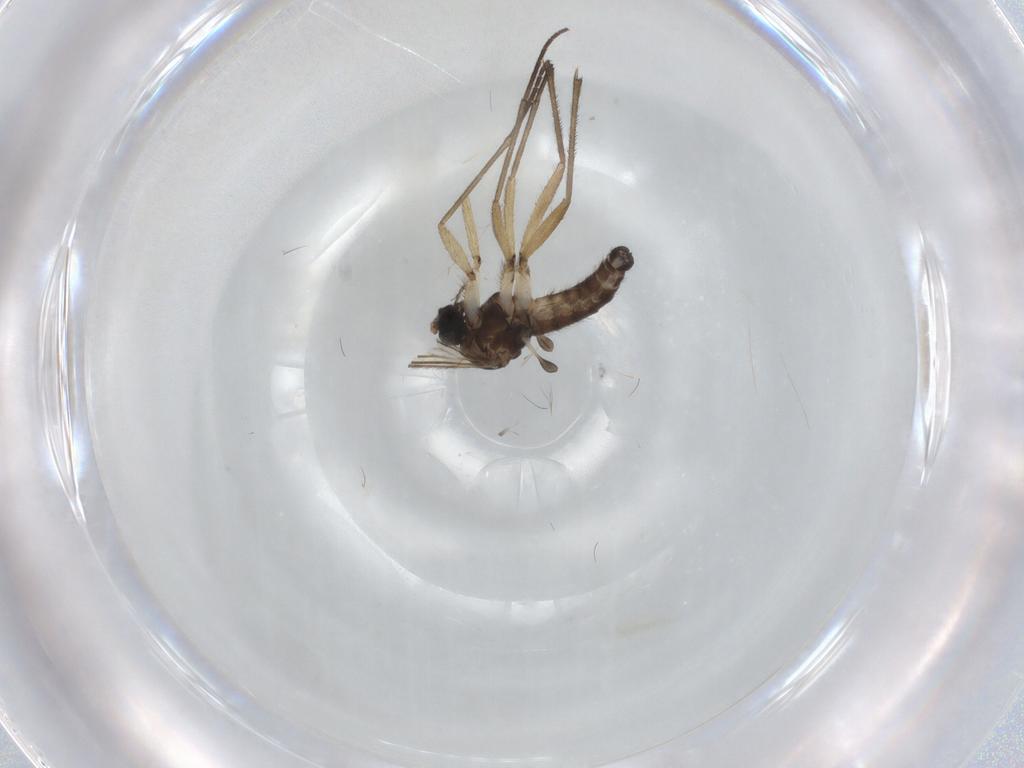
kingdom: Animalia
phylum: Arthropoda
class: Insecta
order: Diptera
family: Sciaridae
